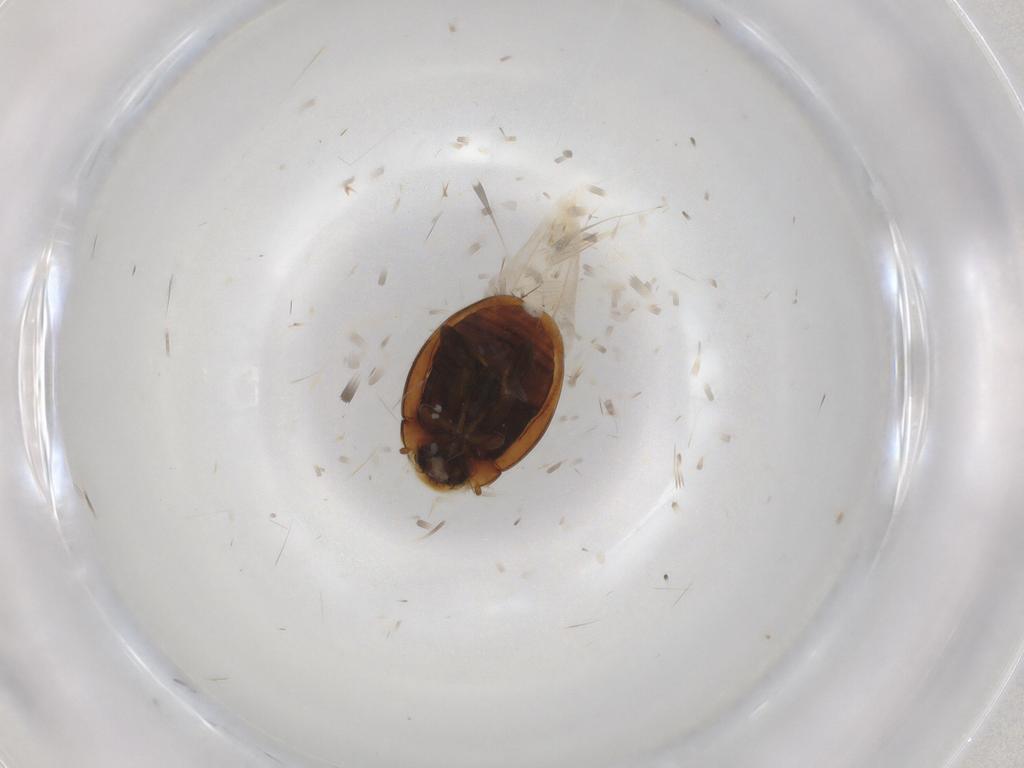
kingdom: Animalia
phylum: Arthropoda
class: Insecta
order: Coleoptera
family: Coccinellidae
